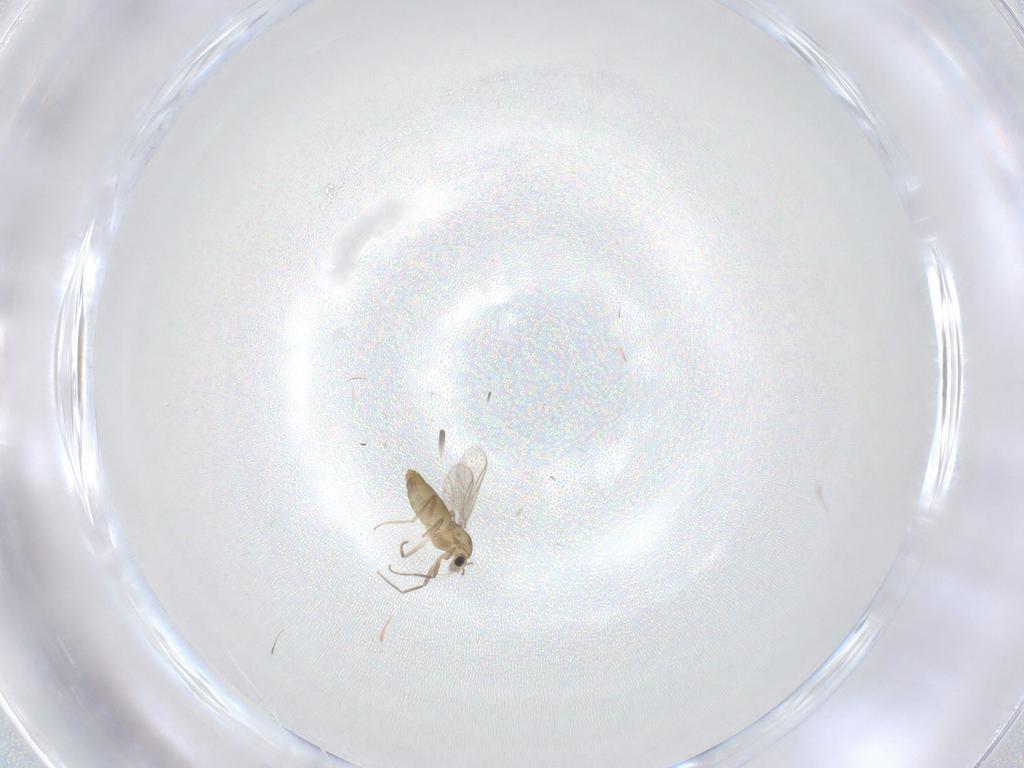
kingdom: Animalia
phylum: Arthropoda
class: Insecta
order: Diptera
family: Chironomidae
